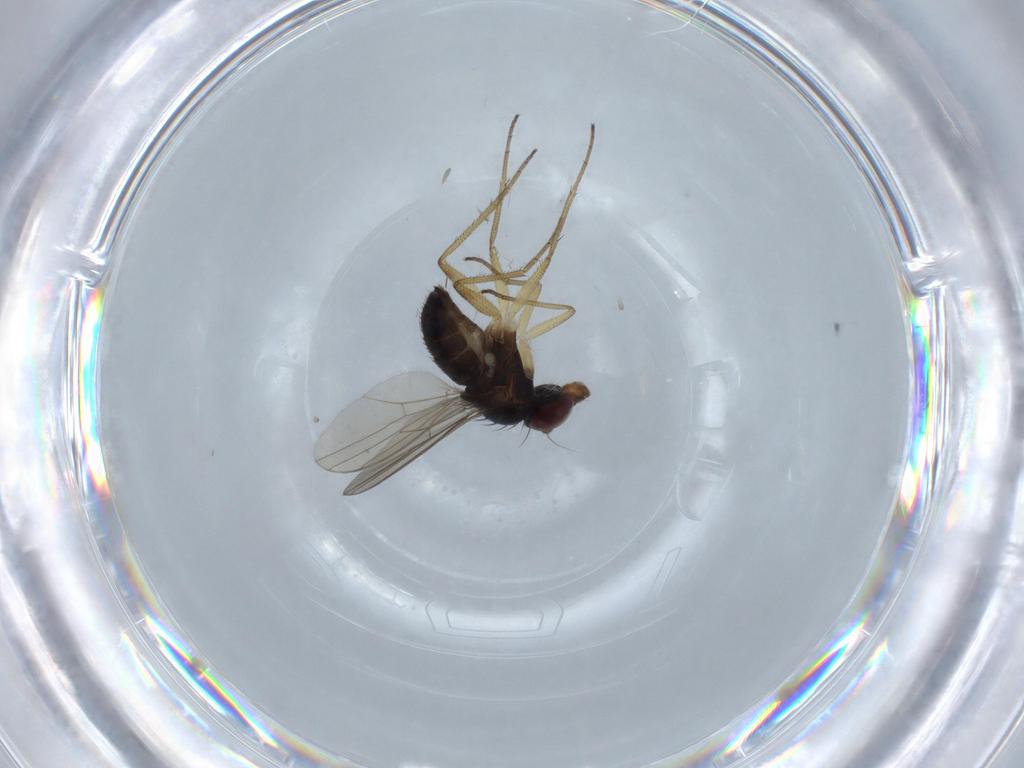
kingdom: Animalia
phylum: Arthropoda
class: Insecta
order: Diptera
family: Dolichopodidae
